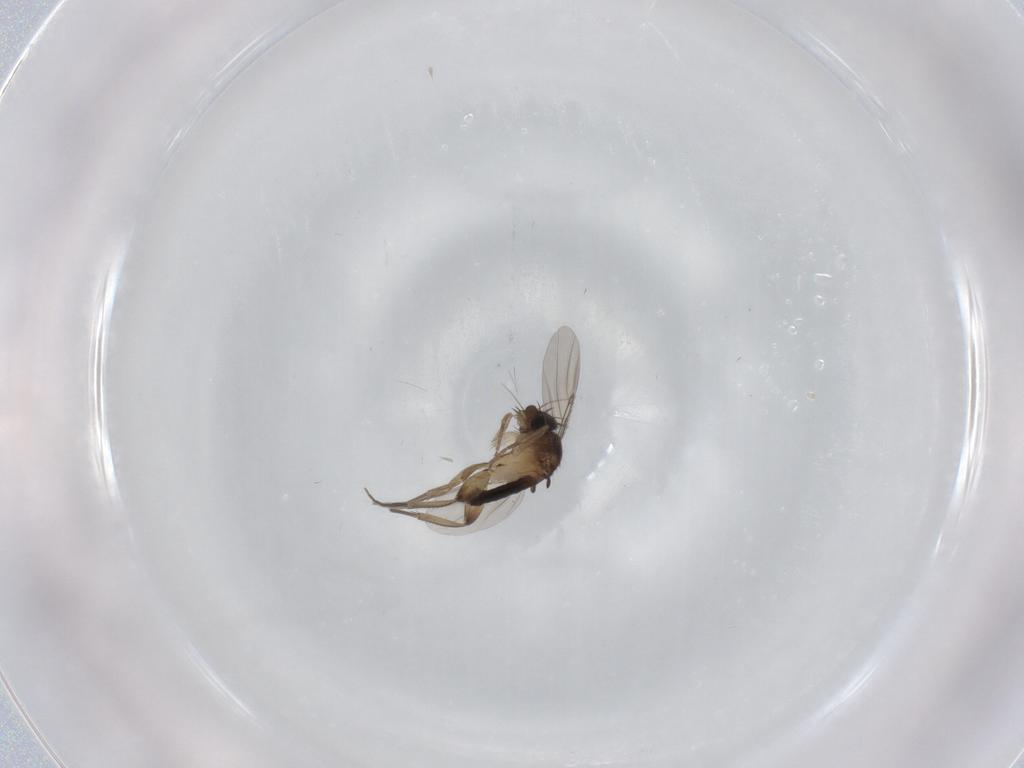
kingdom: Animalia
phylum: Arthropoda
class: Insecta
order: Diptera
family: Phoridae
